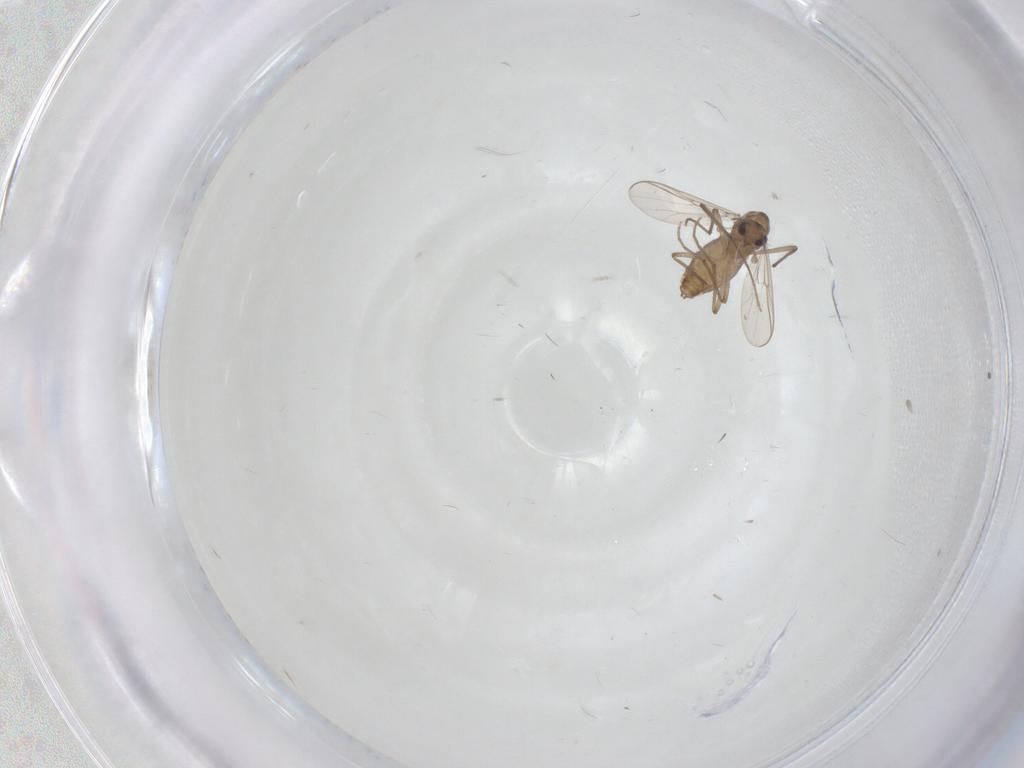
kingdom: Animalia
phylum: Arthropoda
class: Insecta
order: Diptera
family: Chironomidae
